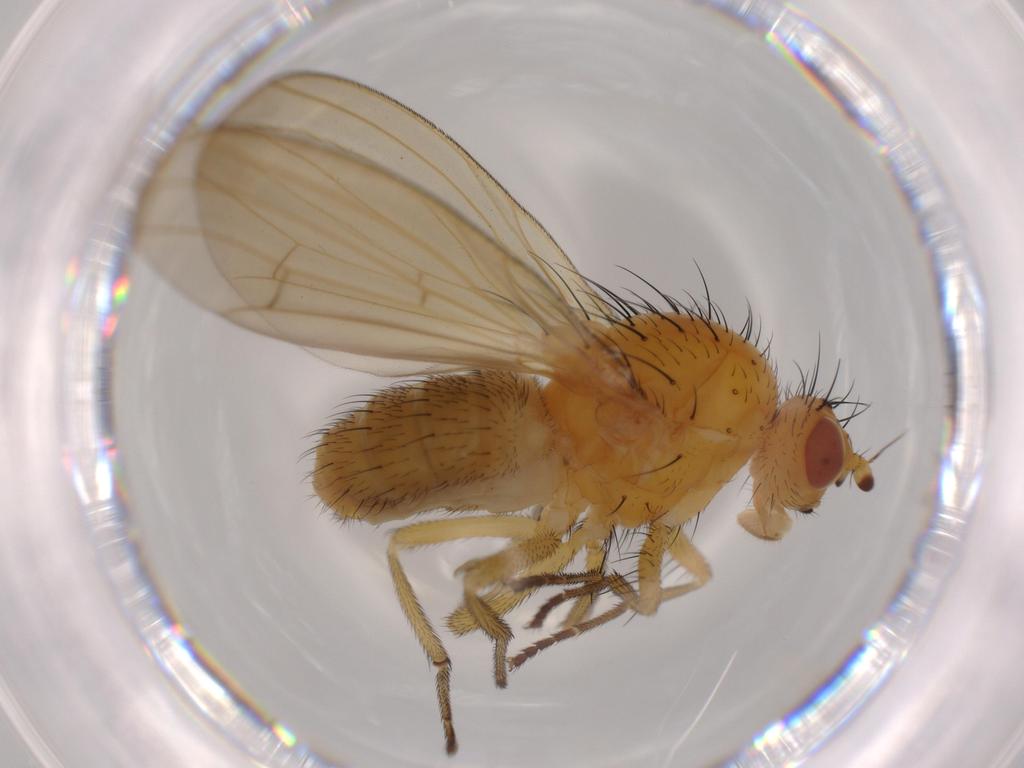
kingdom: Animalia
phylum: Arthropoda
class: Insecta
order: Diptera
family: Lauxaniidae
